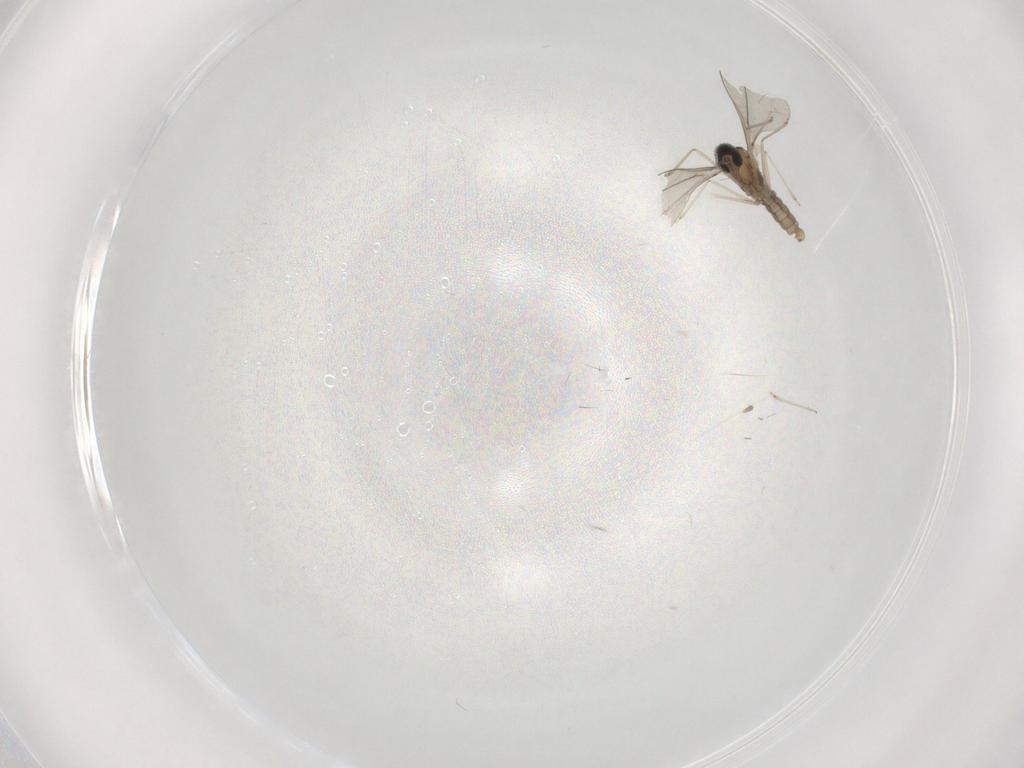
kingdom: Animalia
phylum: Arthropoda
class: Insecta
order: Diptera
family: Cecidomyiidae
